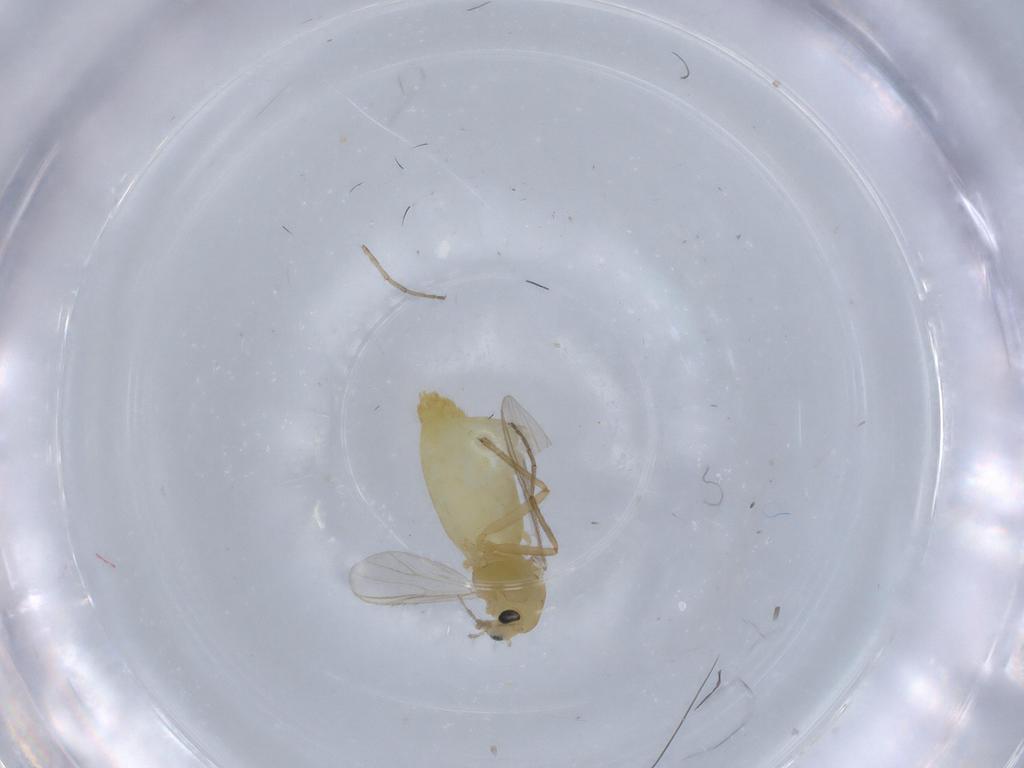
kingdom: Animalia
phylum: Arthropoda
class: Insecta
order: Diptera
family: Chironomidae
